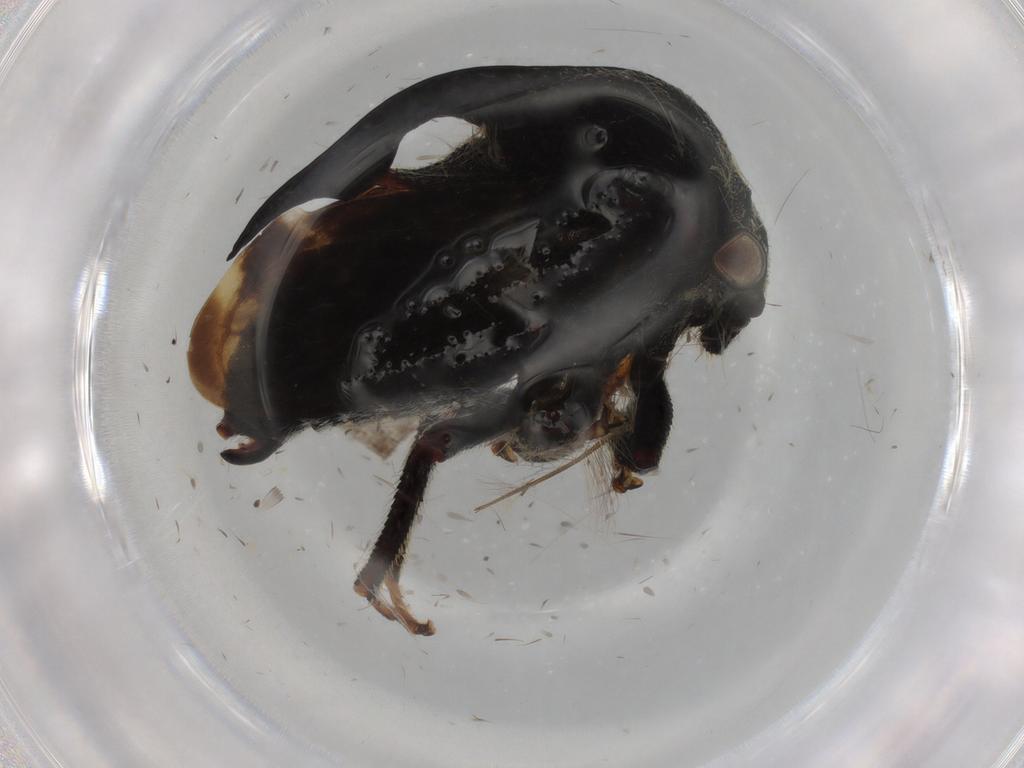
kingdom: Animalia
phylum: Arthropoda
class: Insecta
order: Hemiptera
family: Membracidae
